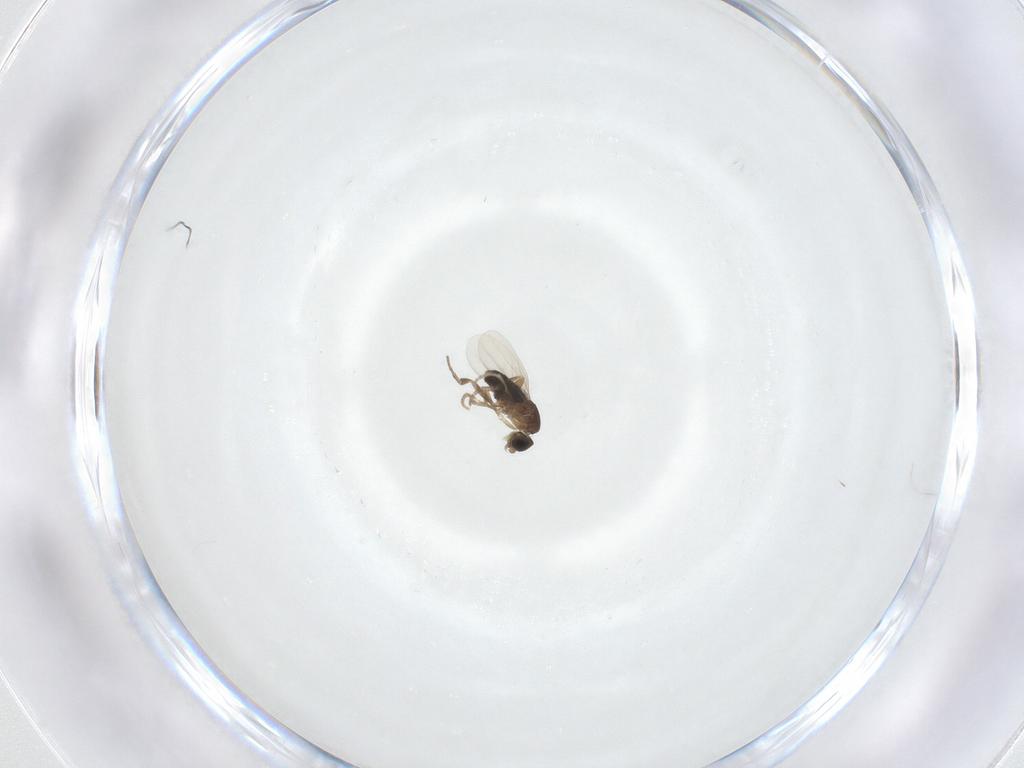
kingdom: Animalia
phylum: Arthropoda
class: Insecta
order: Diptera
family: Phoridae
